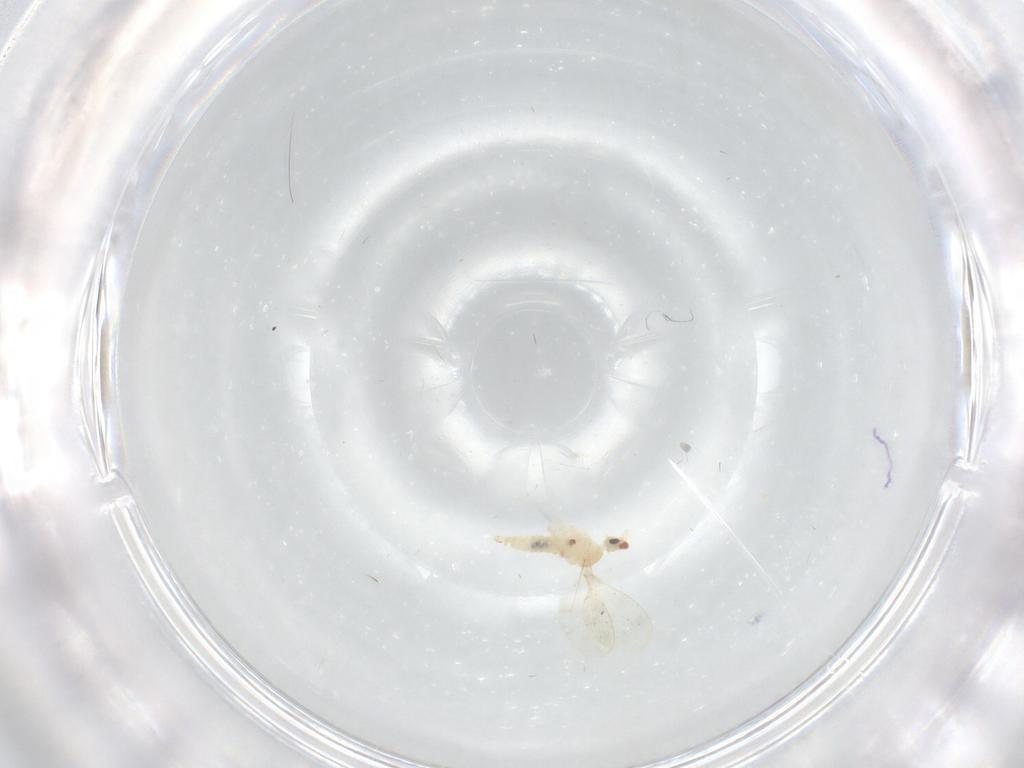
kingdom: Animalia
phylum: Arthropoda
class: Insecta
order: Diptera
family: Cecidomyiidae
